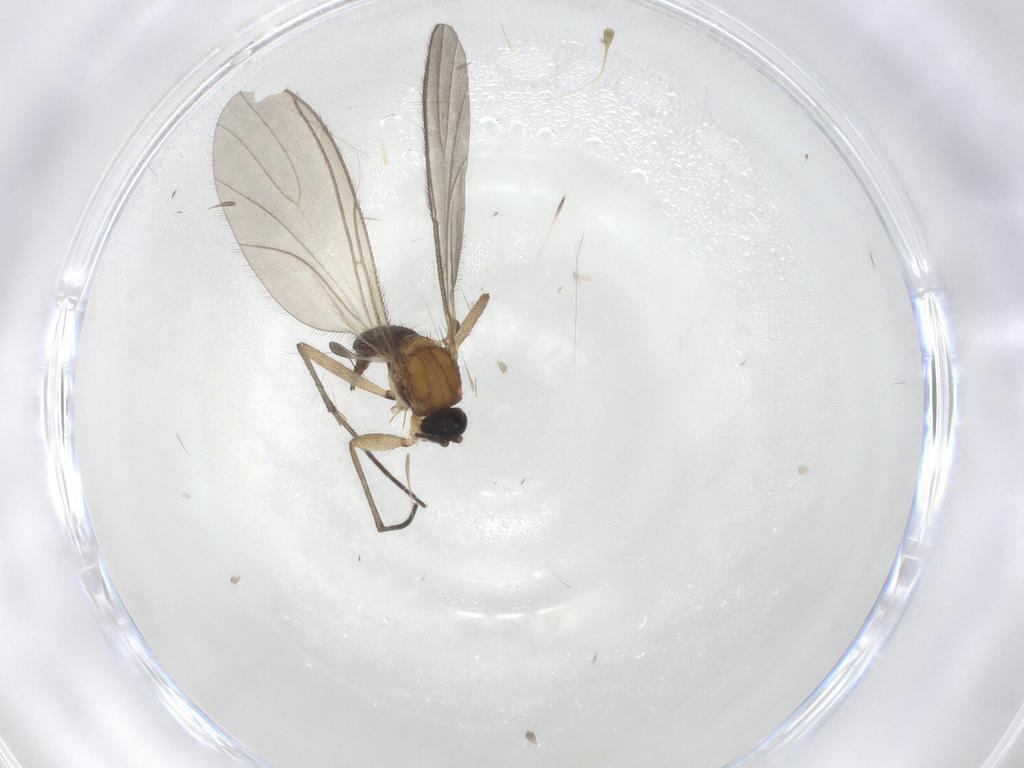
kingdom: Animalia
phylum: Arthropoda
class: Insecta
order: Diptera
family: Sciaridae
